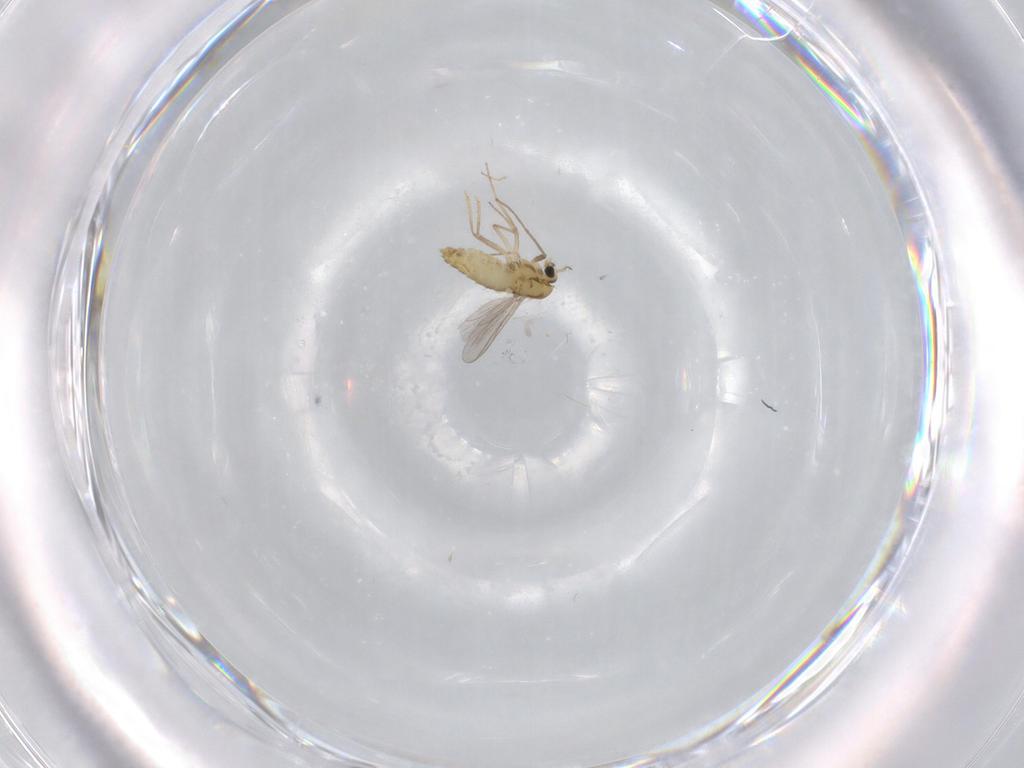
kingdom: Animalia
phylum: Arthropoda
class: Insecta
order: Diptera
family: Chironomidae
